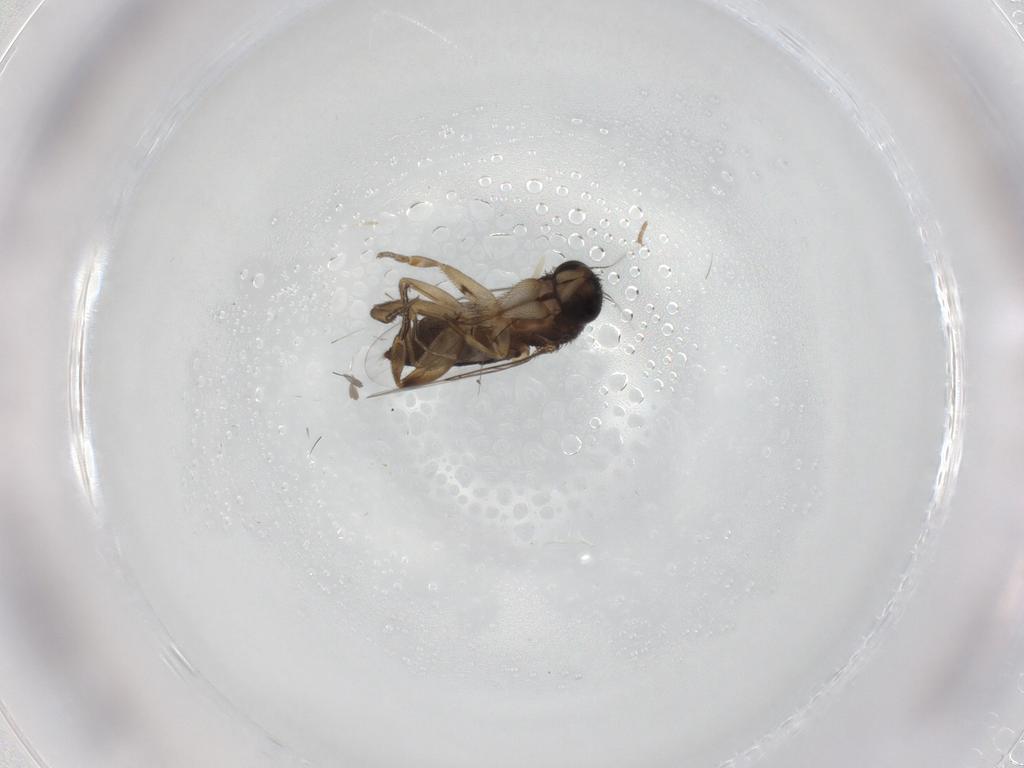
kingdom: Animalia
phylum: Arthropoda
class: Insecta
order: Diptera
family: Phoridae
